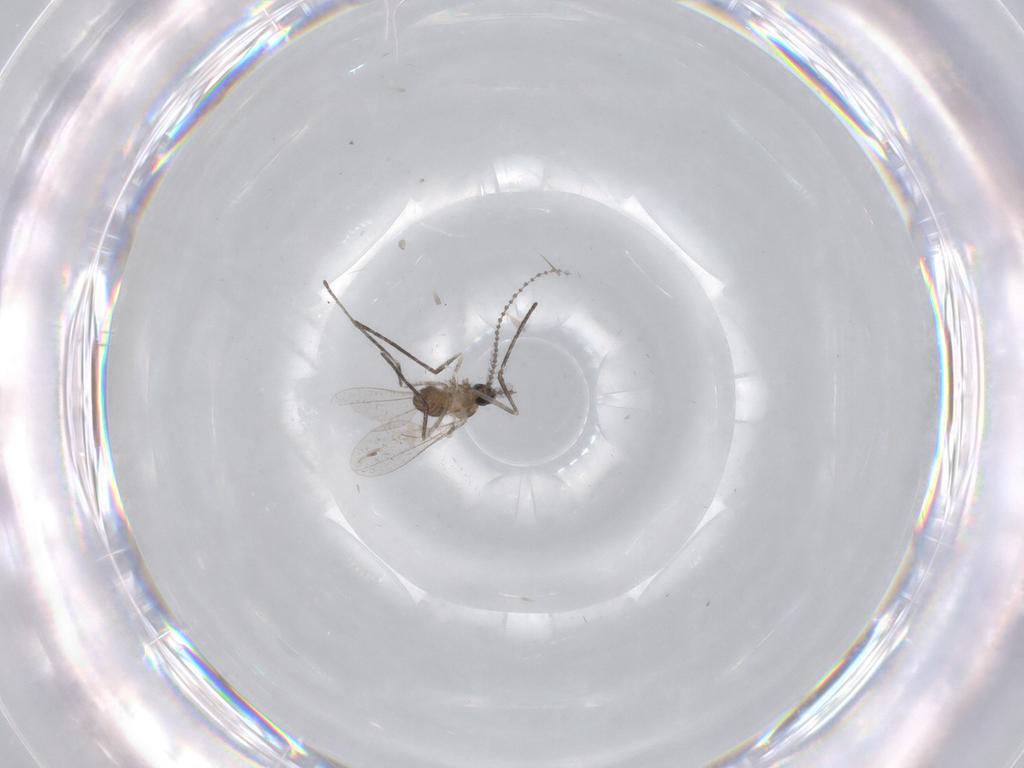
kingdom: Animalia
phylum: Arthropoda
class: Insecta
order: Diptera
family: Cecidomyiidae
